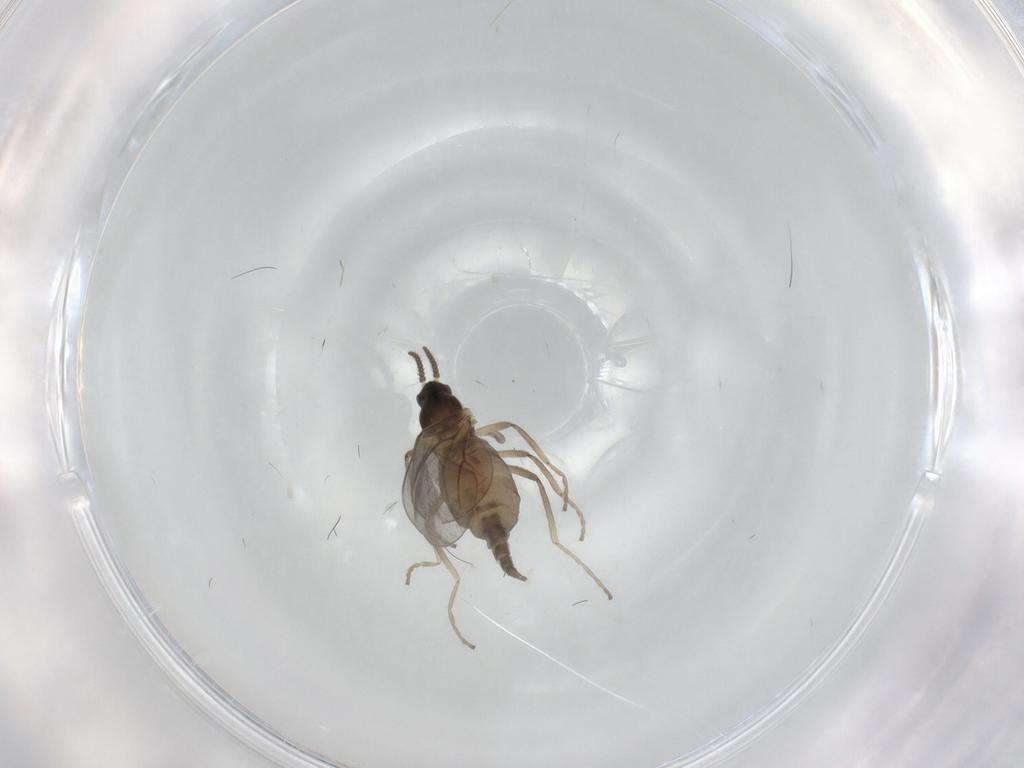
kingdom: Animalia
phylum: Arthropoda
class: Insecta
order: Diptera
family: Cecidomyiidae
